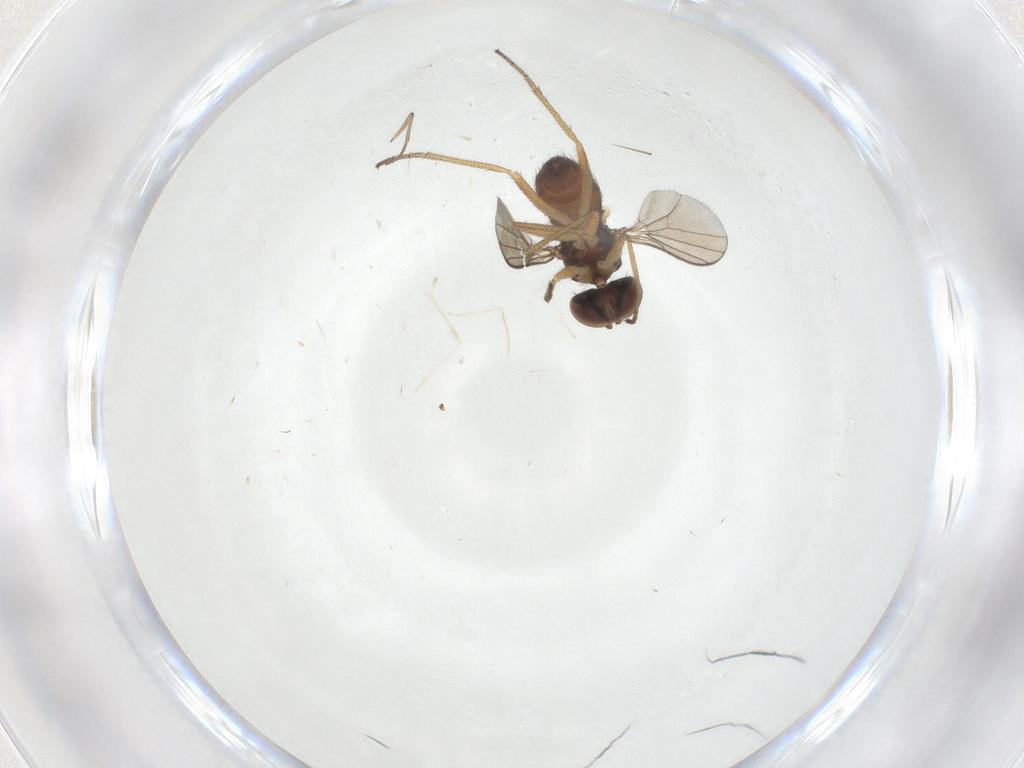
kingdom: Animalia
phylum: Arthropoda
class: Insecta
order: Diptera
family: Dolichopodidae
